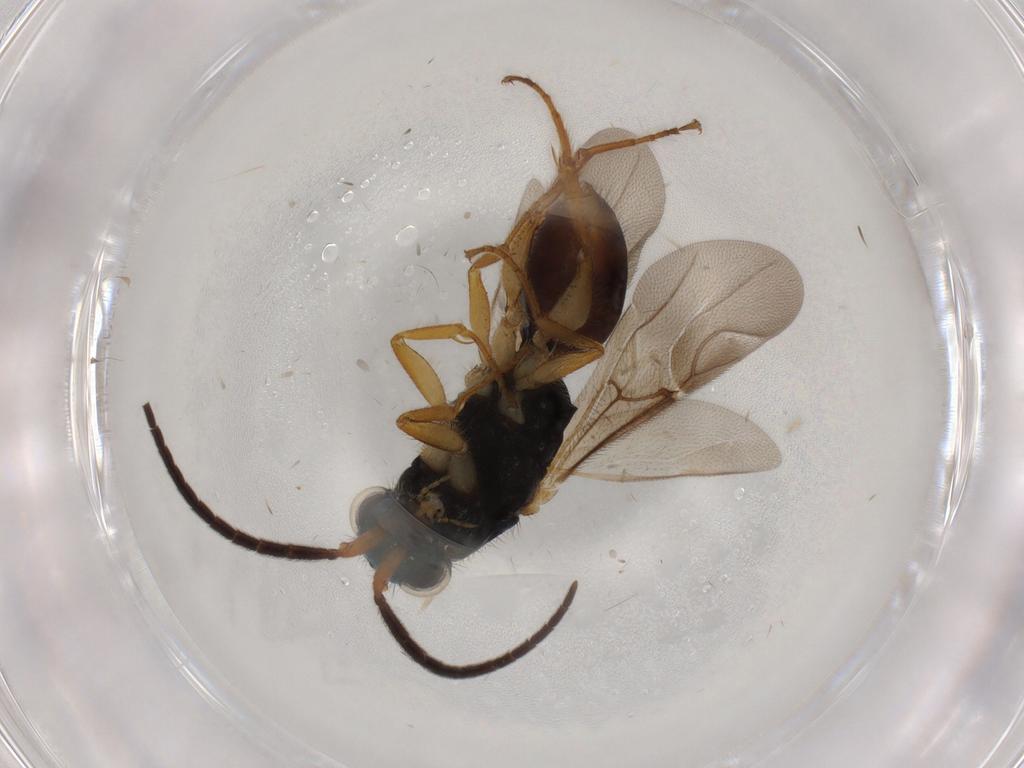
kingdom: Animalia
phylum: Arthropoda
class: Insecta
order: Hymenoptera
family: Chrysididae
